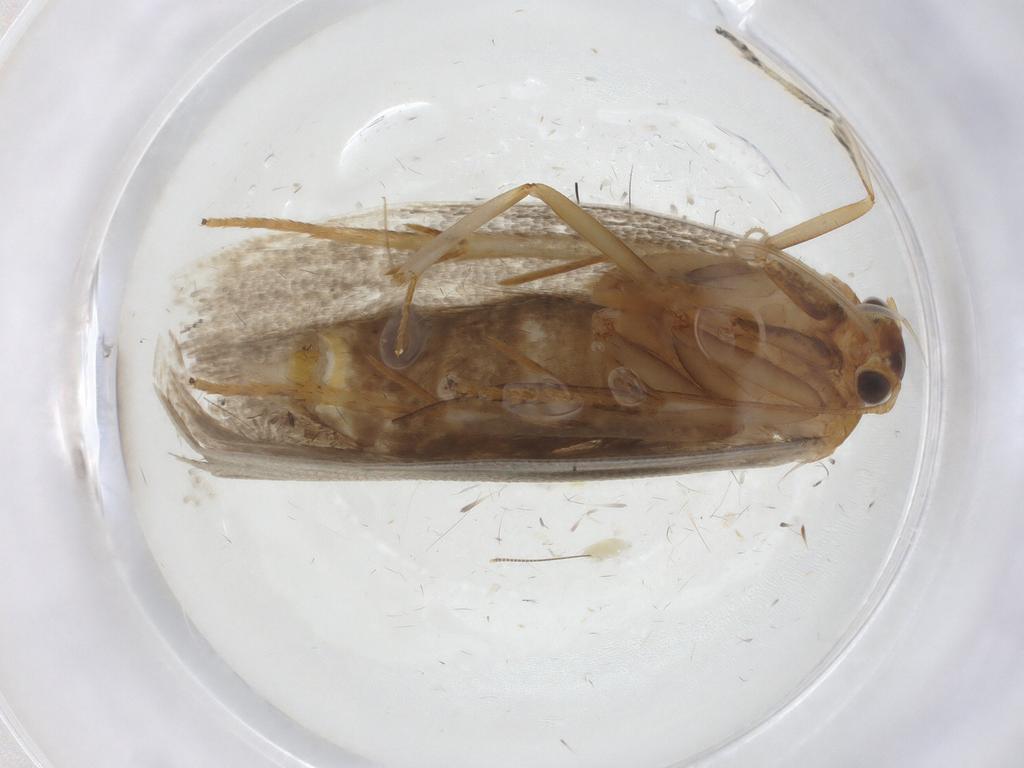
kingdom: Animalia
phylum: Arthropoda
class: Insecta
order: Lepidoptera
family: Oecophoridae
